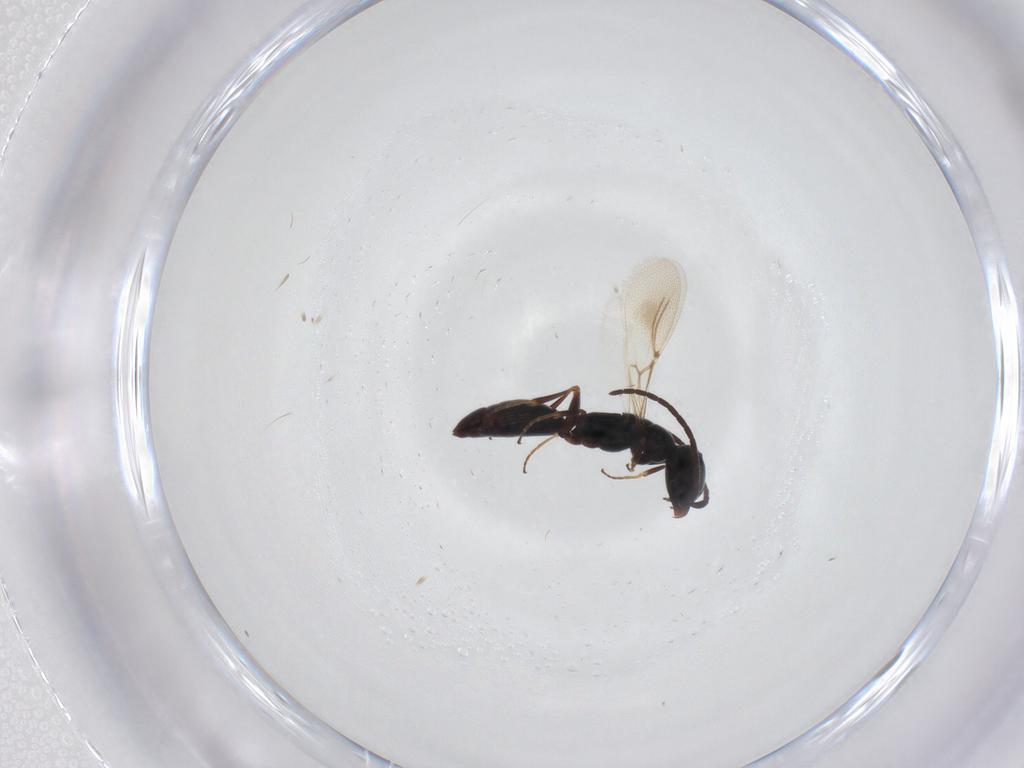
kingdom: Animalia
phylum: Arthropoda
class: Insecta
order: Hymenoptera
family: Bethylidae
